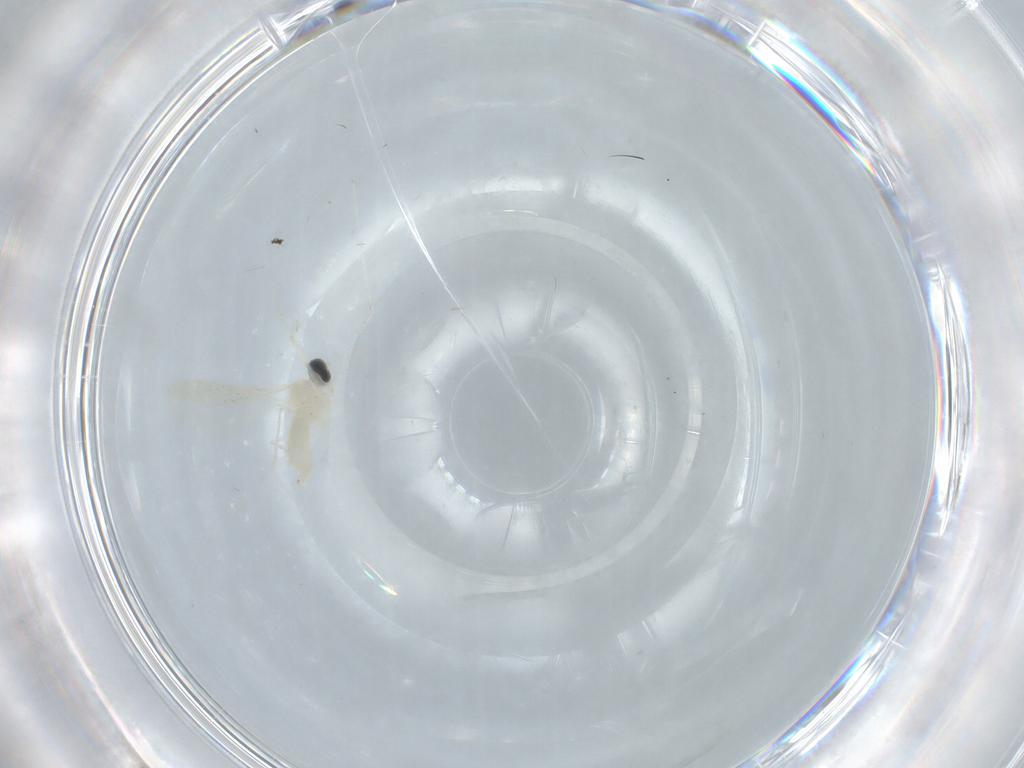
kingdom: Animalia
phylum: Arthropoda
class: Insecta
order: Diptera
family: Cecidomyiidae
